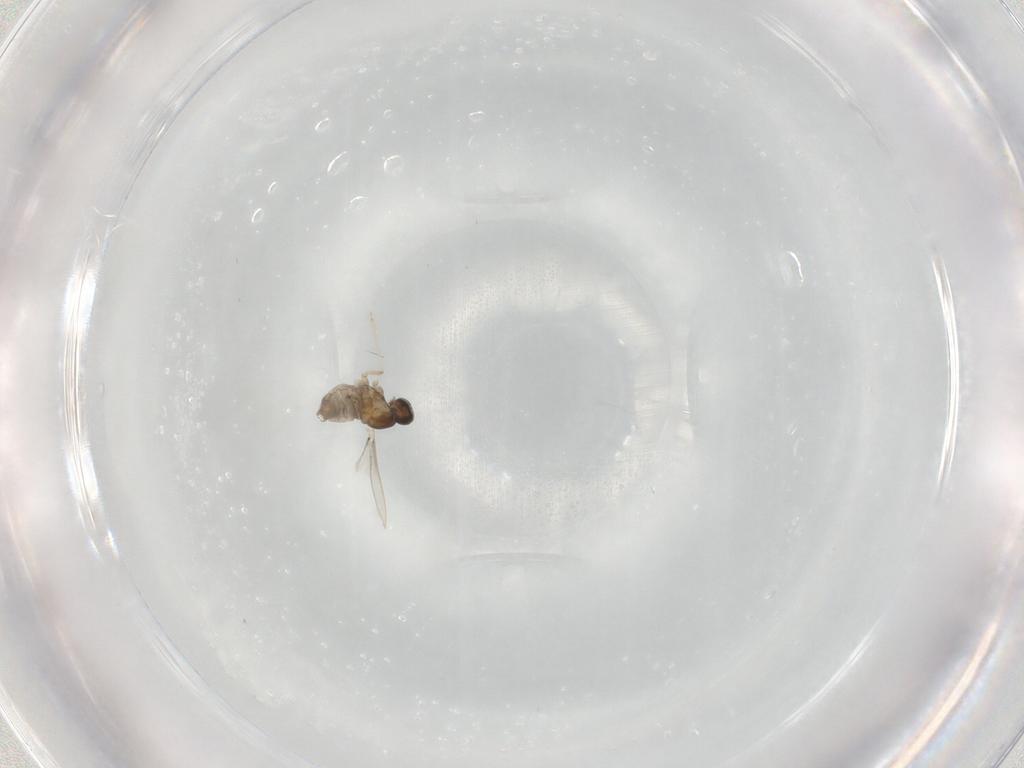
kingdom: Animalia
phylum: Arthropoda
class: Insecta
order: Diptera
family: Cecidomyiidae
